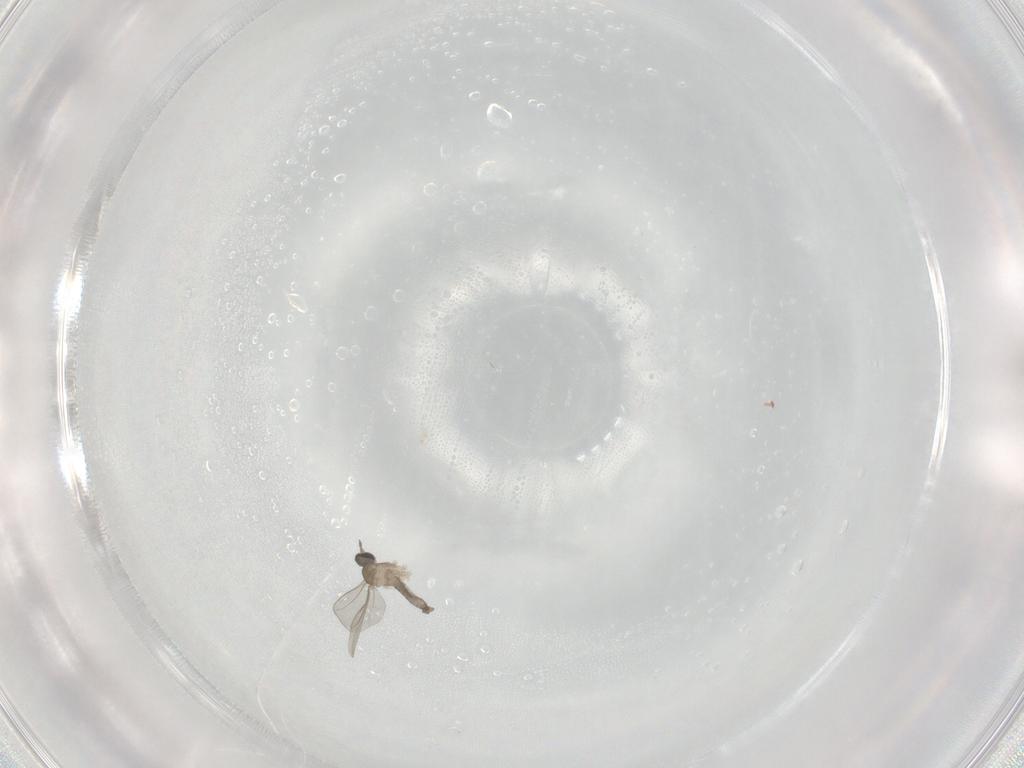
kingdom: Animalia
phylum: Arthropoda
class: Insecta
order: Diptera
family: Cecidomyiidae
